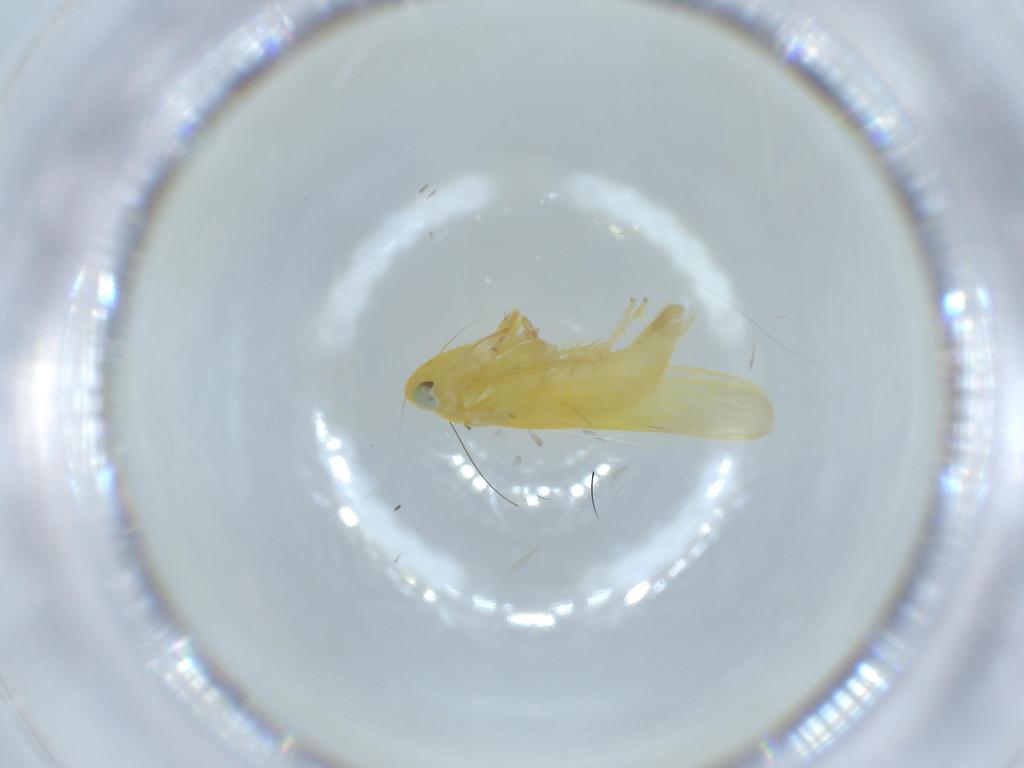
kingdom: Animalia
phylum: Arthropoda
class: Insecta
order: Hemiptera
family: Cicadellidae
